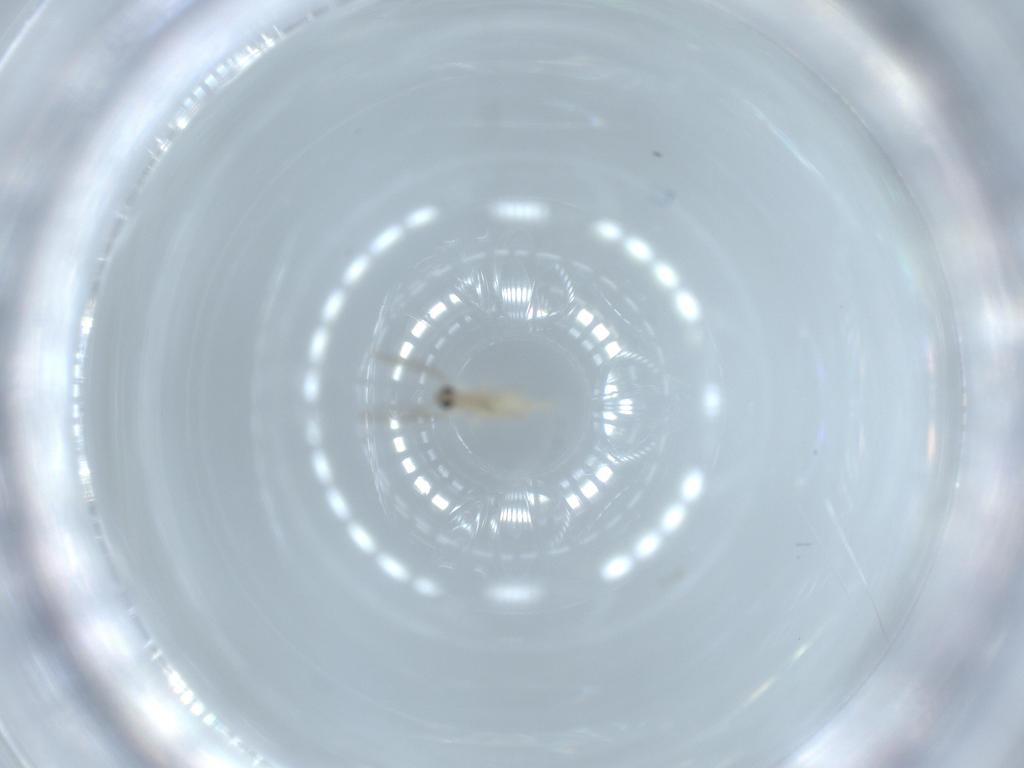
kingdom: Animalia
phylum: Arthropoda
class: Insecta
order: Diptera
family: Cecidomyiidae
